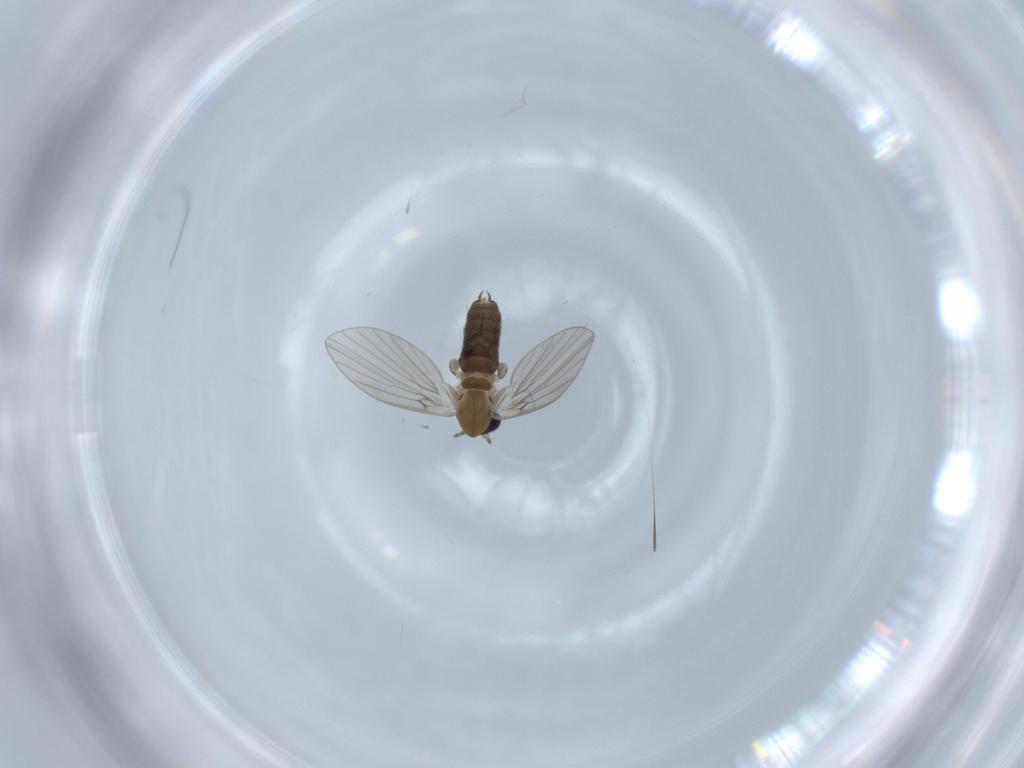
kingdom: Animalia
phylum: Arthropoda
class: Insecta
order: Diptera
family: Psychodidae
